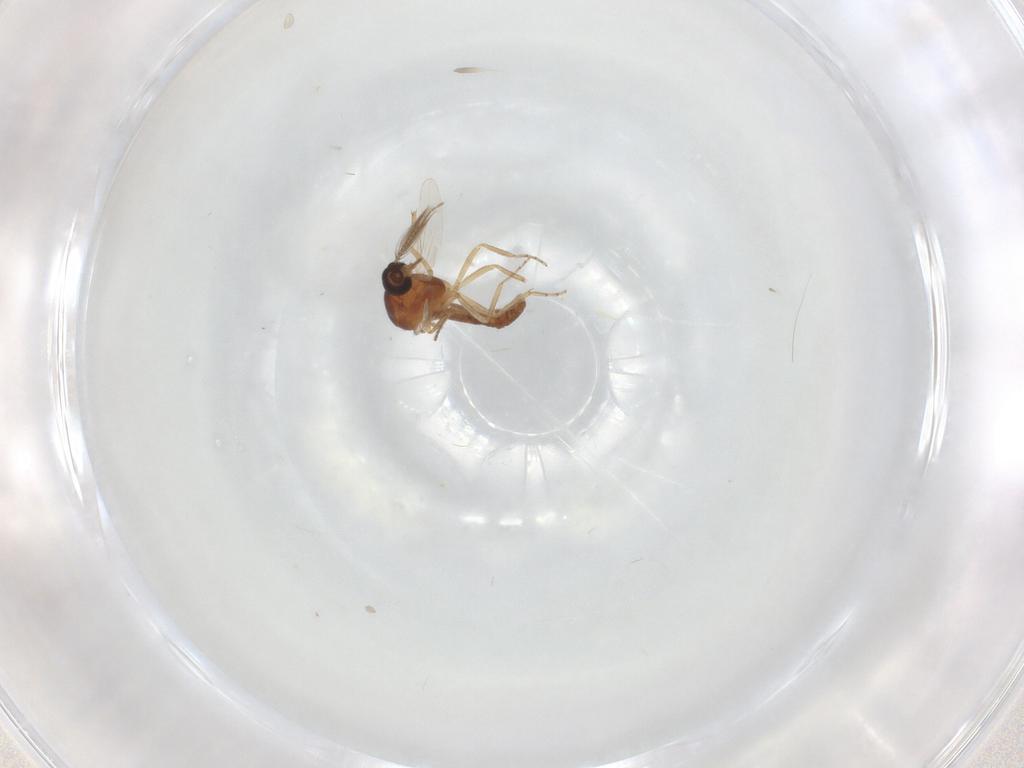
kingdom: Animalia
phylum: Arthropoda
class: Insecta
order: Diptera
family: Ceratopogonidae
